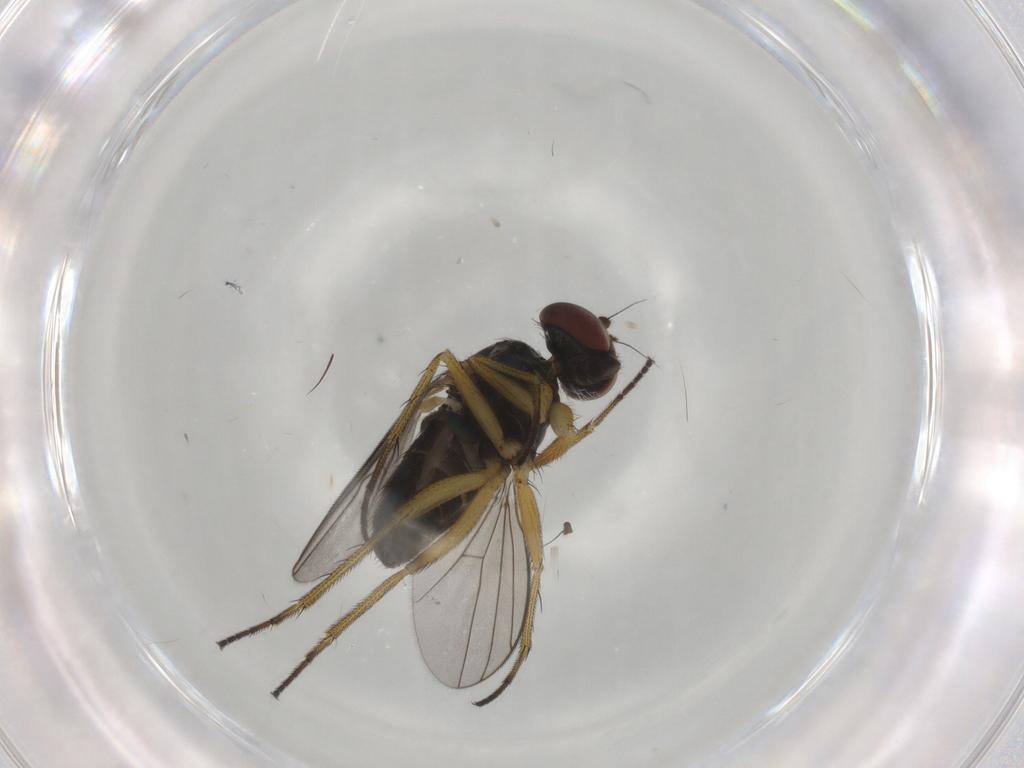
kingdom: Animalia
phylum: Arthropoda
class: Insecta
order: Diptera
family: Dolichopodidae
